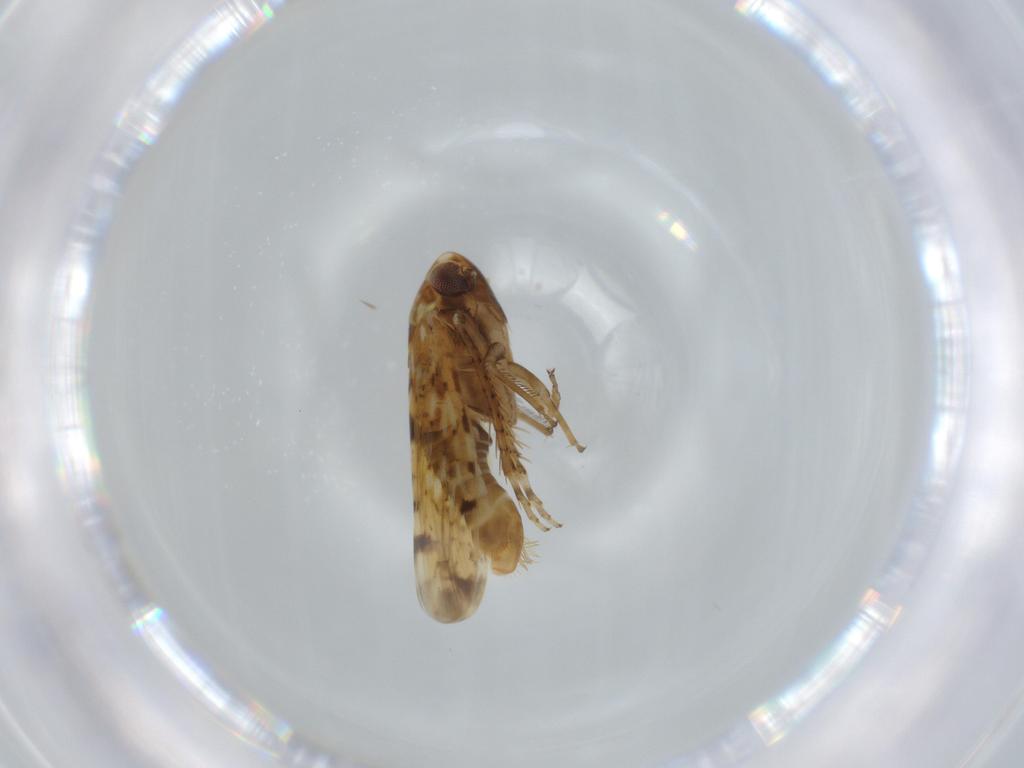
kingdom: Animalia
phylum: Arthropoda
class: Insecta
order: Hemiptera
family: Cicadellidae
